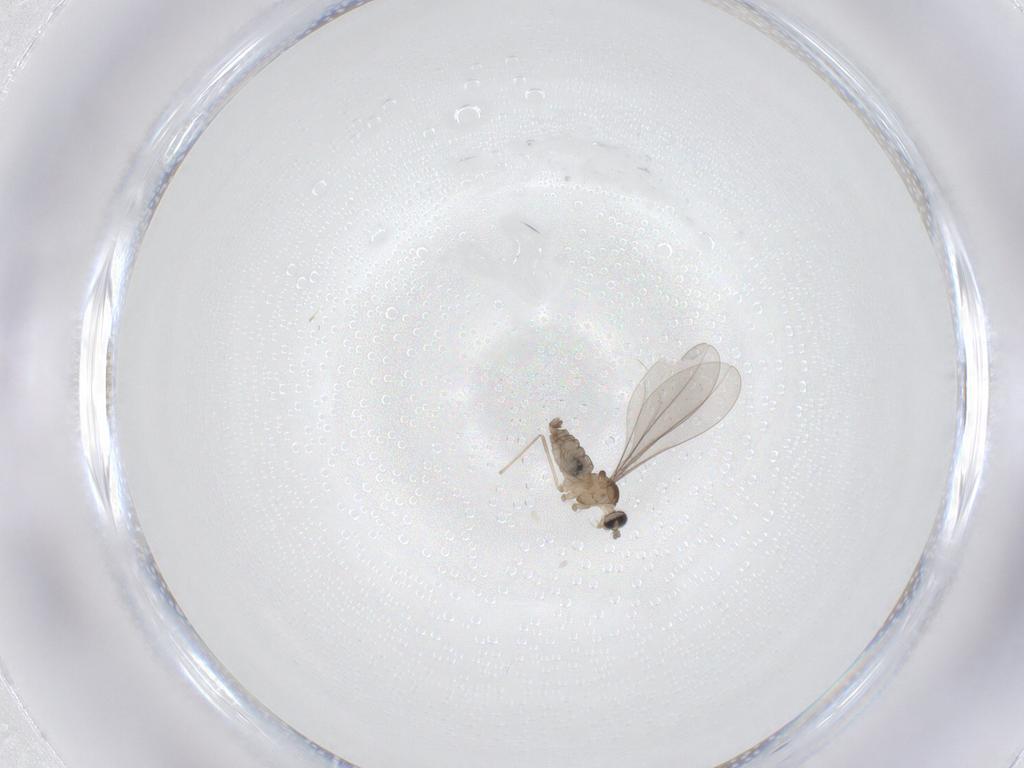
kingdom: Animalia
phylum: Arthropoda
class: Insecta
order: Diptera
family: Cecidomyiidae
